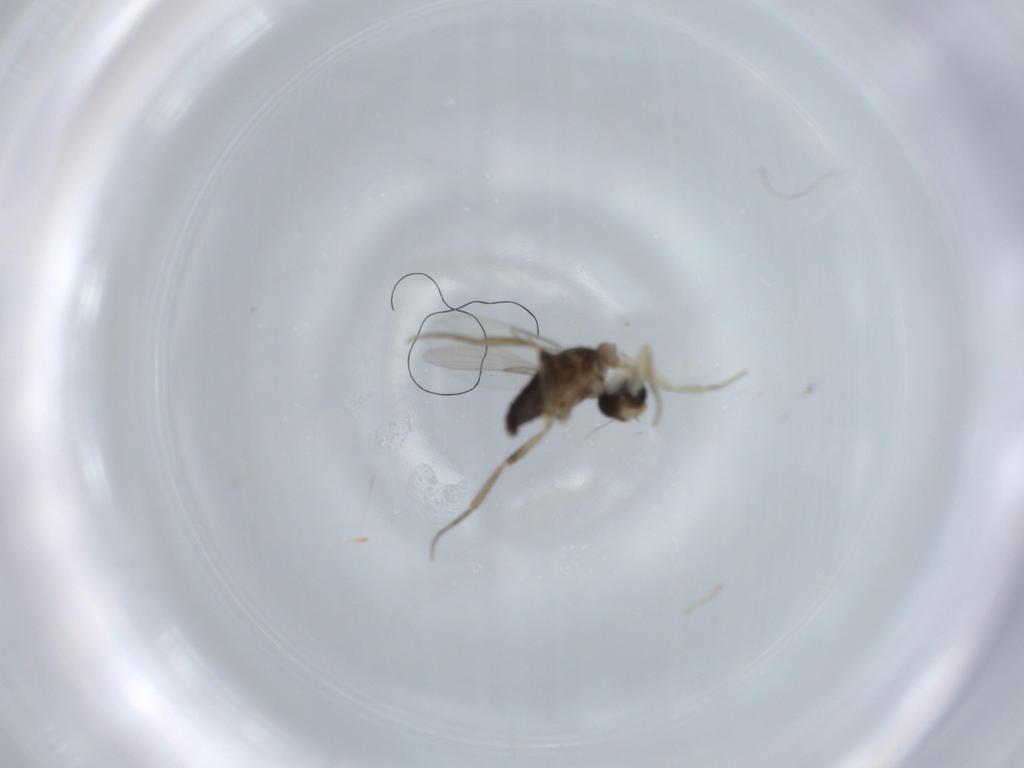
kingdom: Animalia
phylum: Arthropoda
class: Insecta
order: Diptera
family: Phoridae
